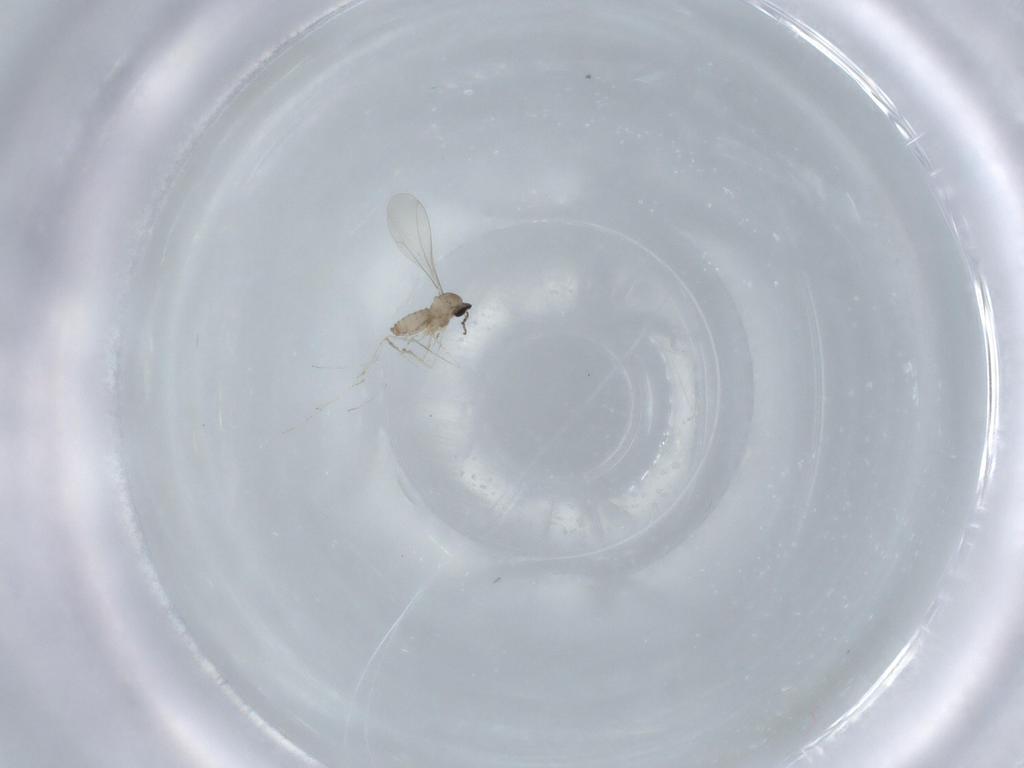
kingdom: Animalia
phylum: Arthropoda
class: Insecta
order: Diptera
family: Cecidomyiidae
